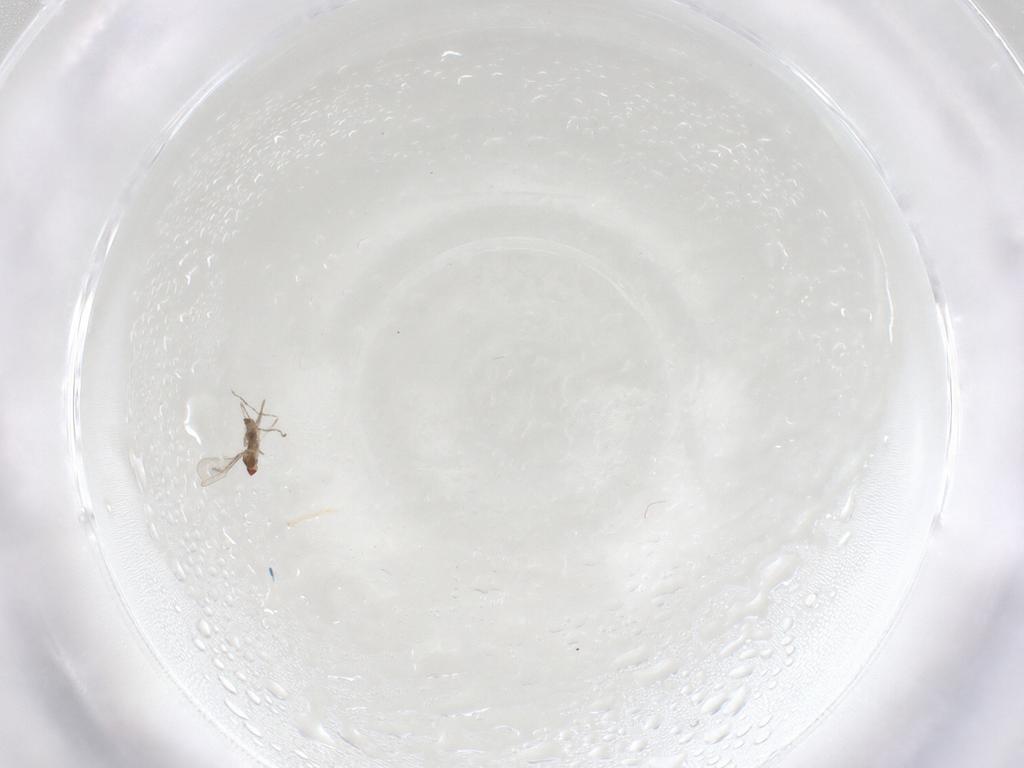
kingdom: Animalia
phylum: Arthropoda
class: Insecta
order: Diptera
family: Cecidomyiidae
